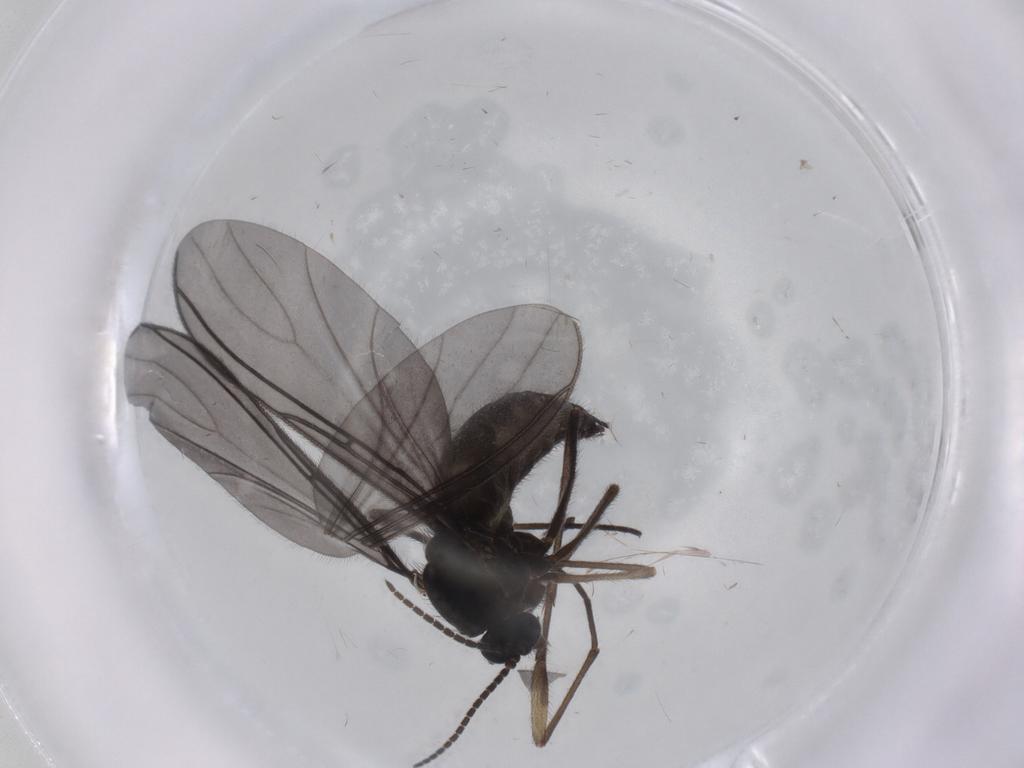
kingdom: Animalia
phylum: Arthropoda
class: Insecta
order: Diptera
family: Sciaridae
